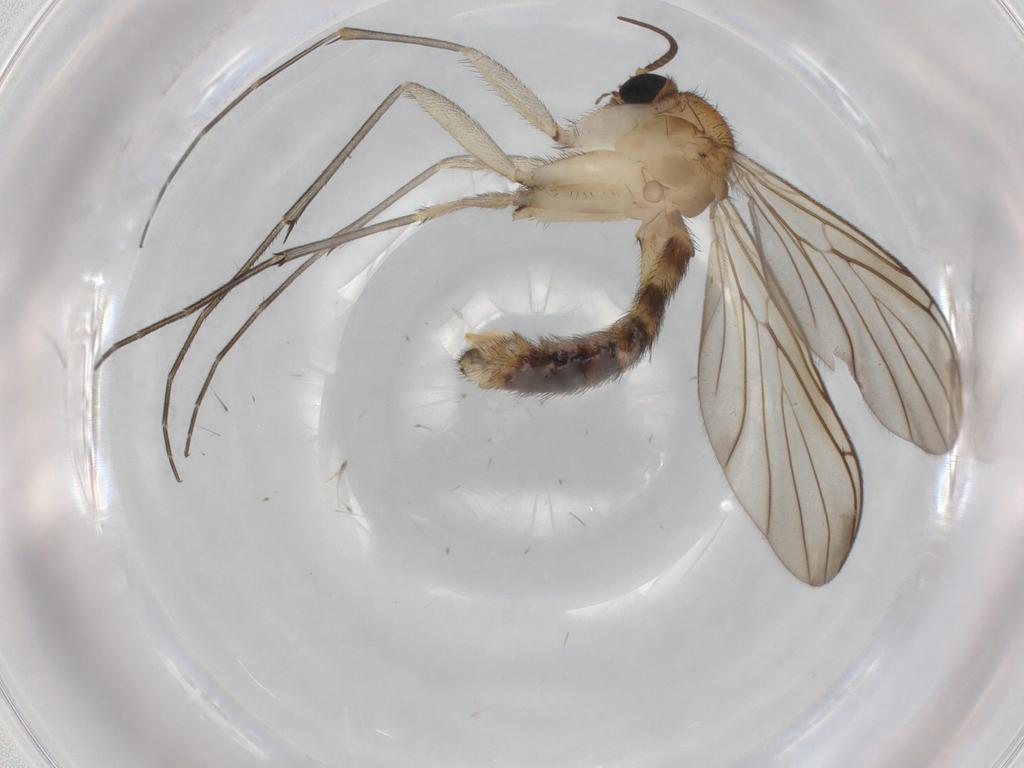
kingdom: Animalia
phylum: Arthropoda
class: Insecta
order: Diptera
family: Keroplatidae
